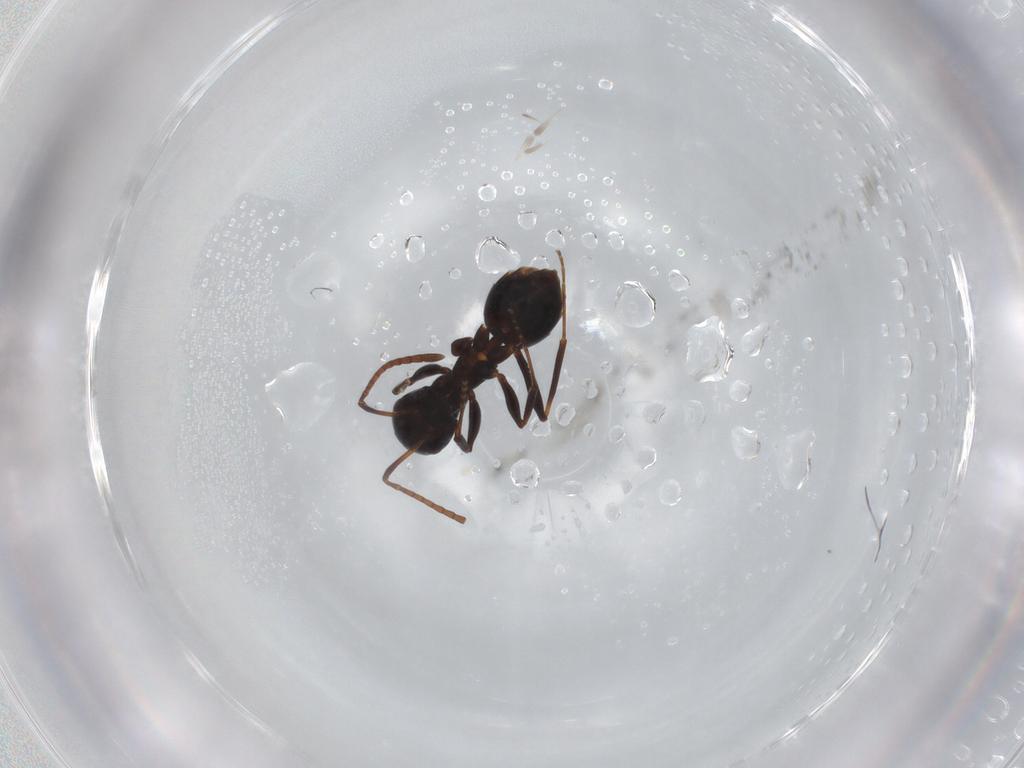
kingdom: Animalia
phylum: Arthropoda
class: Insecta
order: Hymenoptera
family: Formicidae
